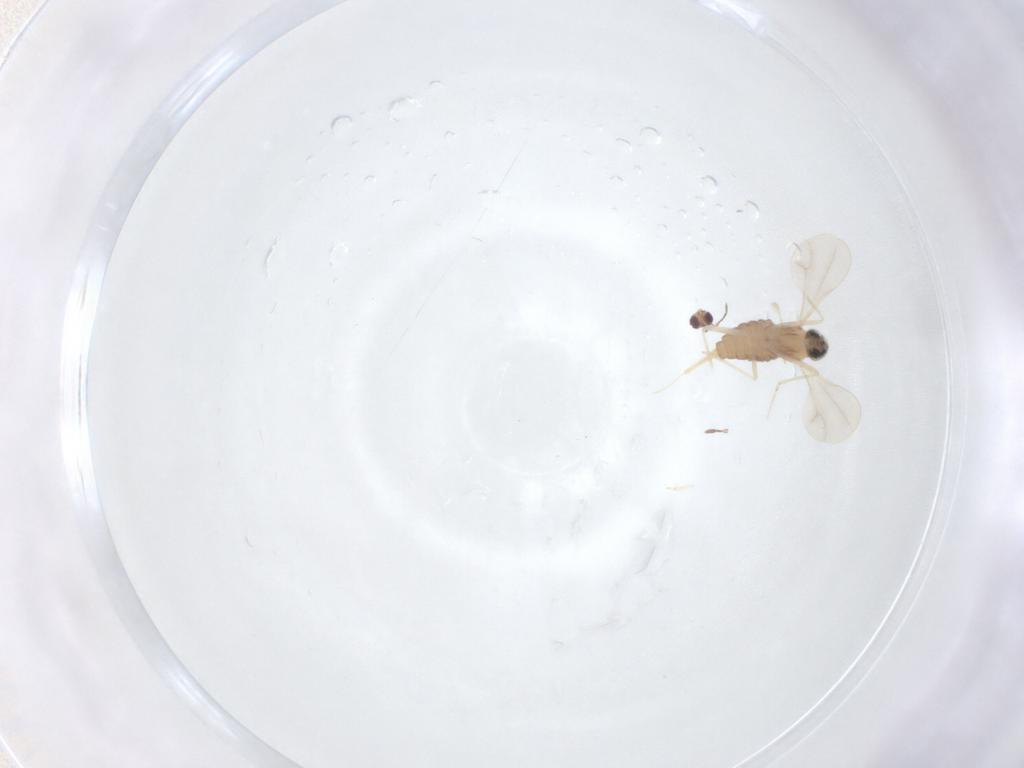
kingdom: Animalia
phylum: Arthropoda
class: Insecta
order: Diptera
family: Cecidomyiidae
